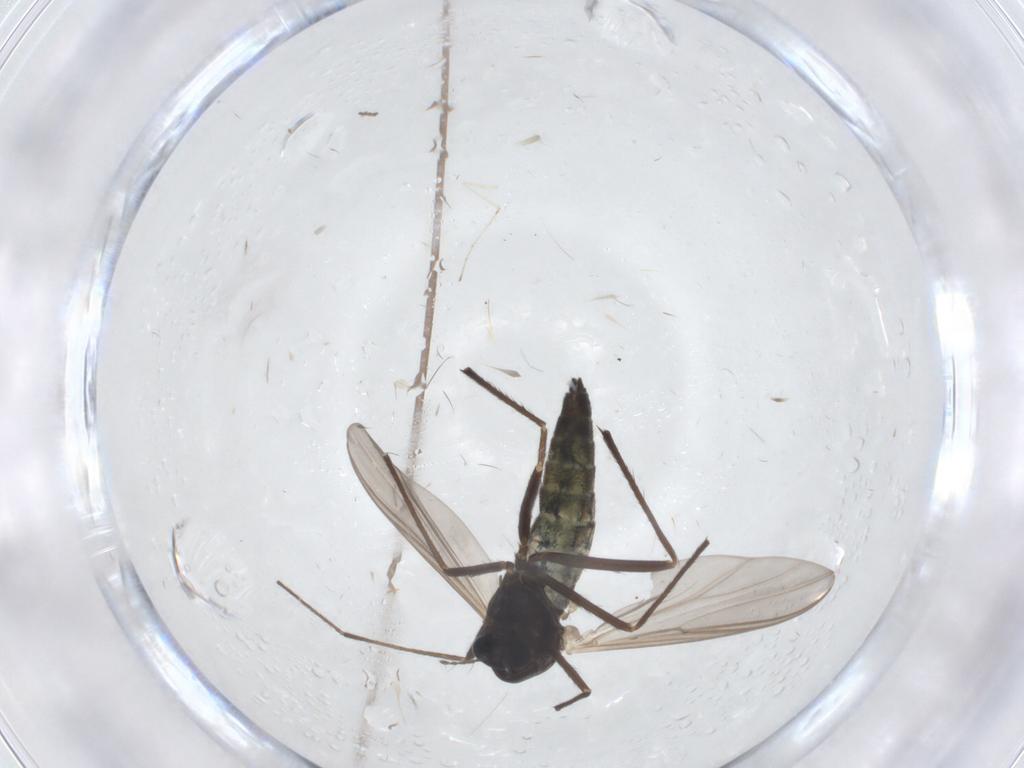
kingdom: Animalia
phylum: Arthropoda
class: Insecta
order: Diptera
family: Chironomidae
